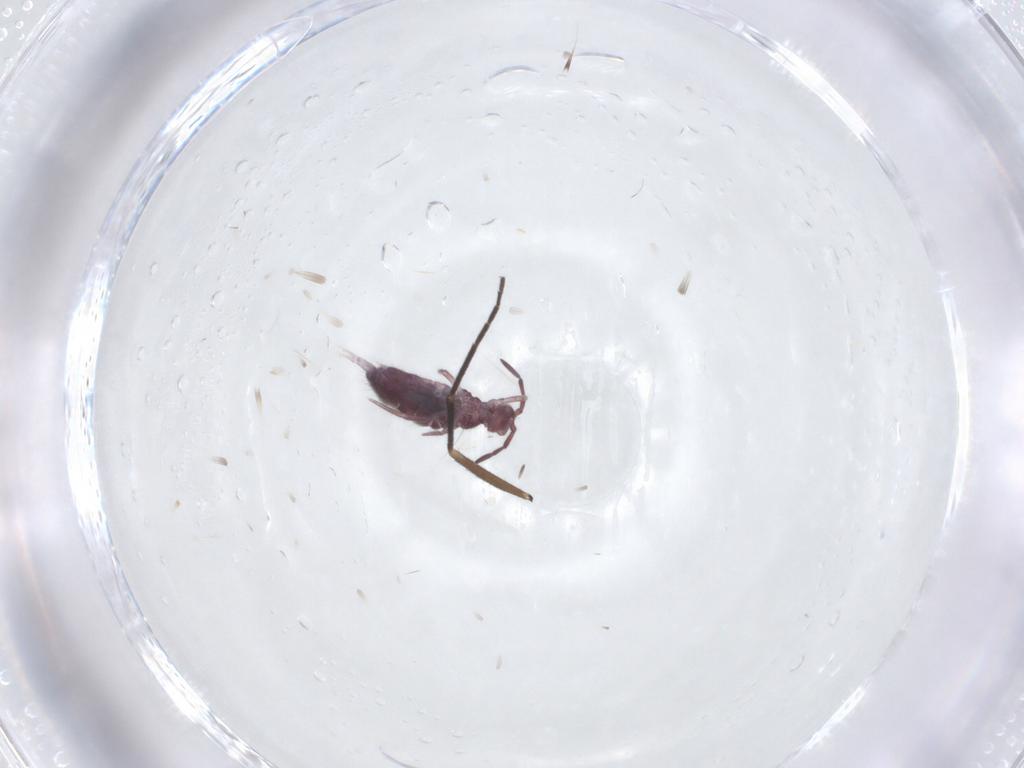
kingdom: Animalia
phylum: Arthropoda
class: Collembola
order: Entomobryomorpha
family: Entomobryidae
